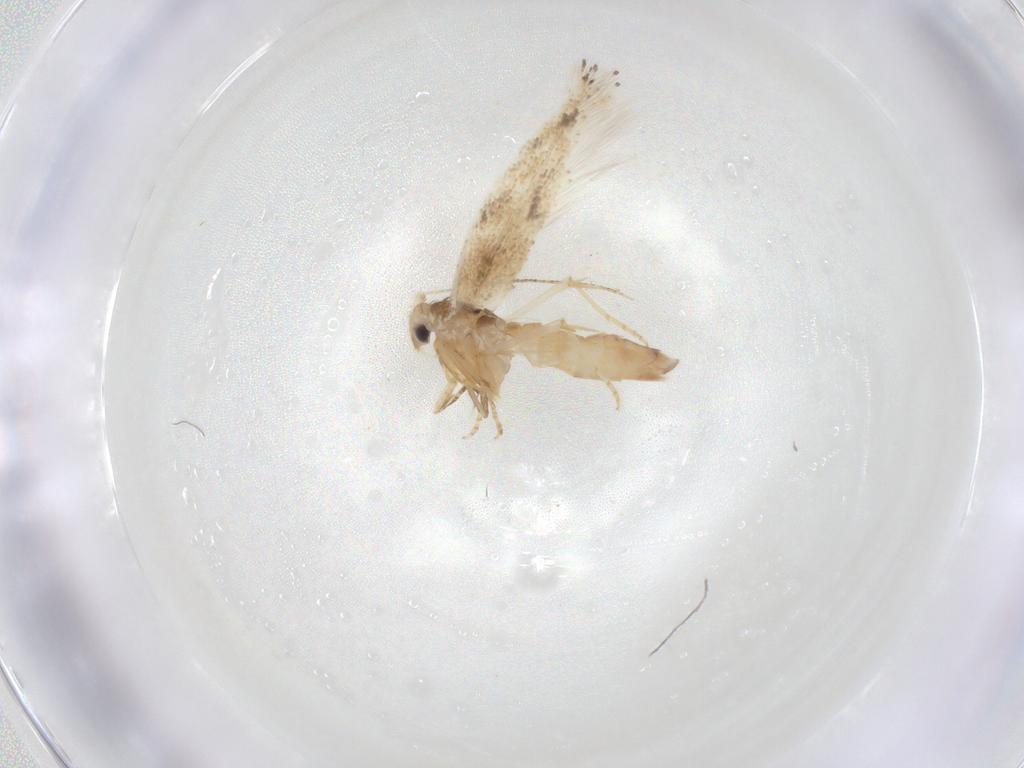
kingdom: Animalia
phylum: Arthropoda
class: Insecta
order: Lepidoptera
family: Bucculatricidae
